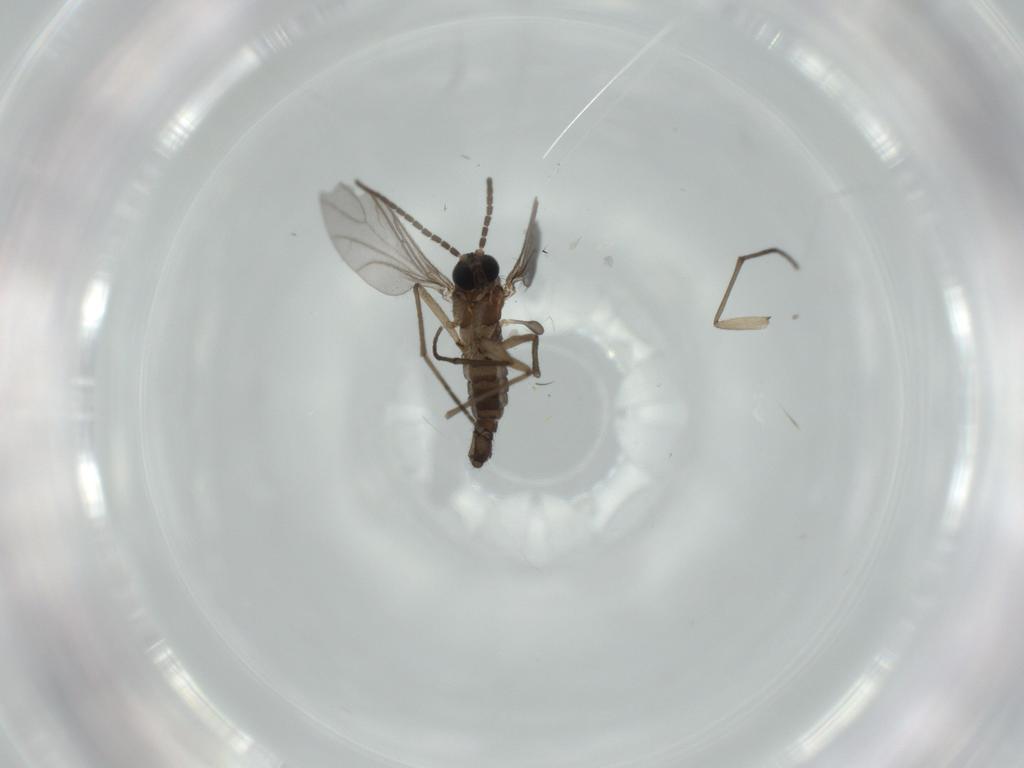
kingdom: Animalia
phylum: Arthropoda
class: Insecta
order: Diptera
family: Sciaridae
